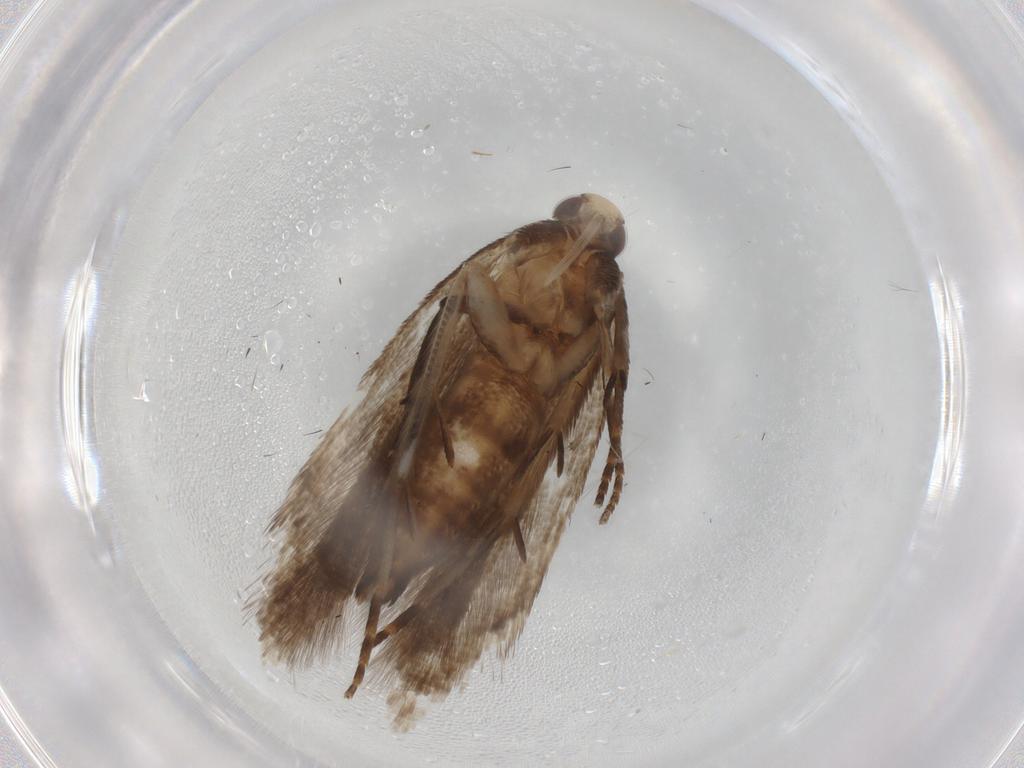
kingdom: Animalia
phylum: Arthropoda
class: Insecta
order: Lepidoptera
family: Gelechiidae
